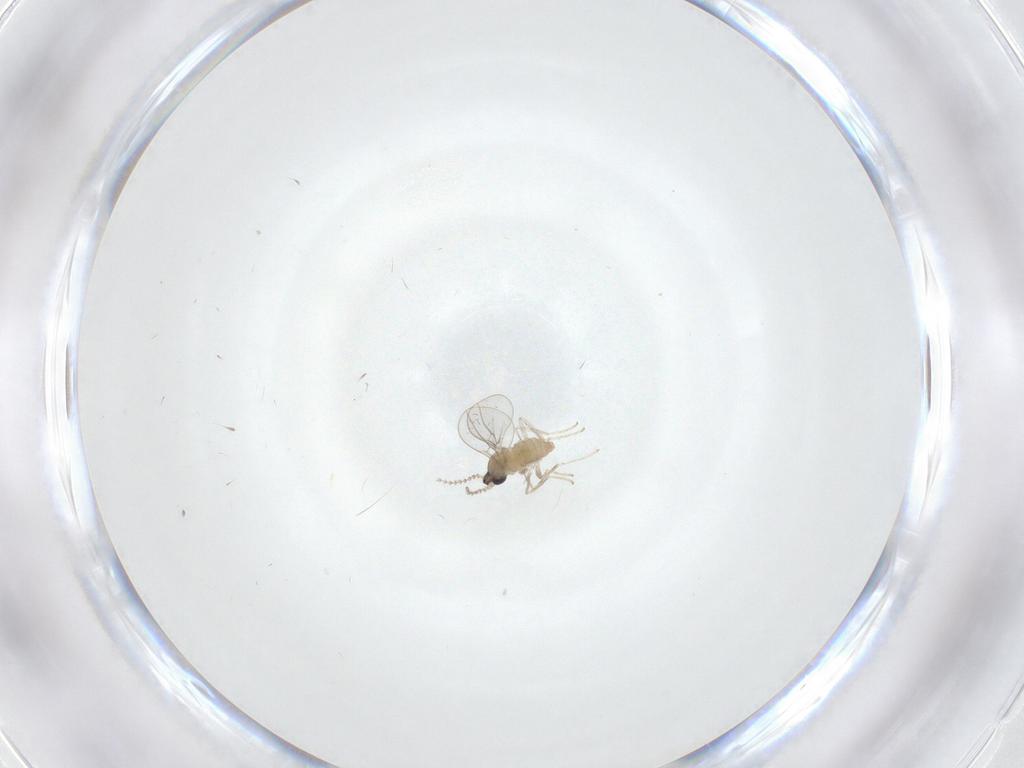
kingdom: Animalia
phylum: Arthropoda
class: Insecta
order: Diptera
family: Cecidomyiidae
